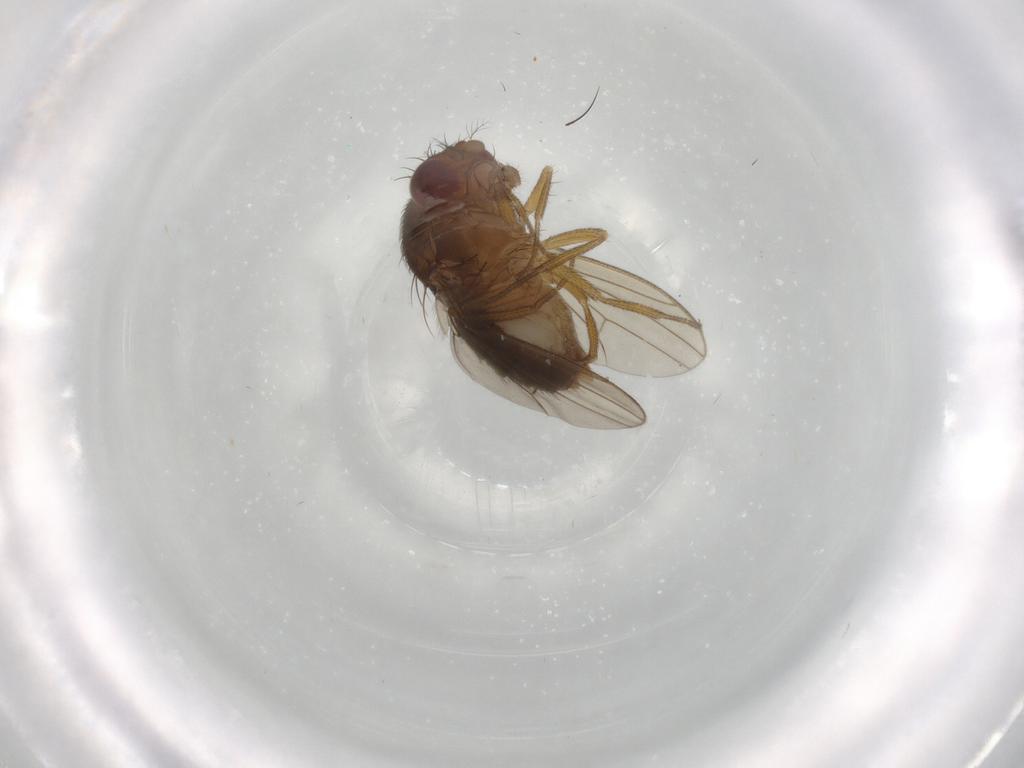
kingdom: Animalia
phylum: Arthropoda
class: Insecta
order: Diptera
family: Drosophilidae
